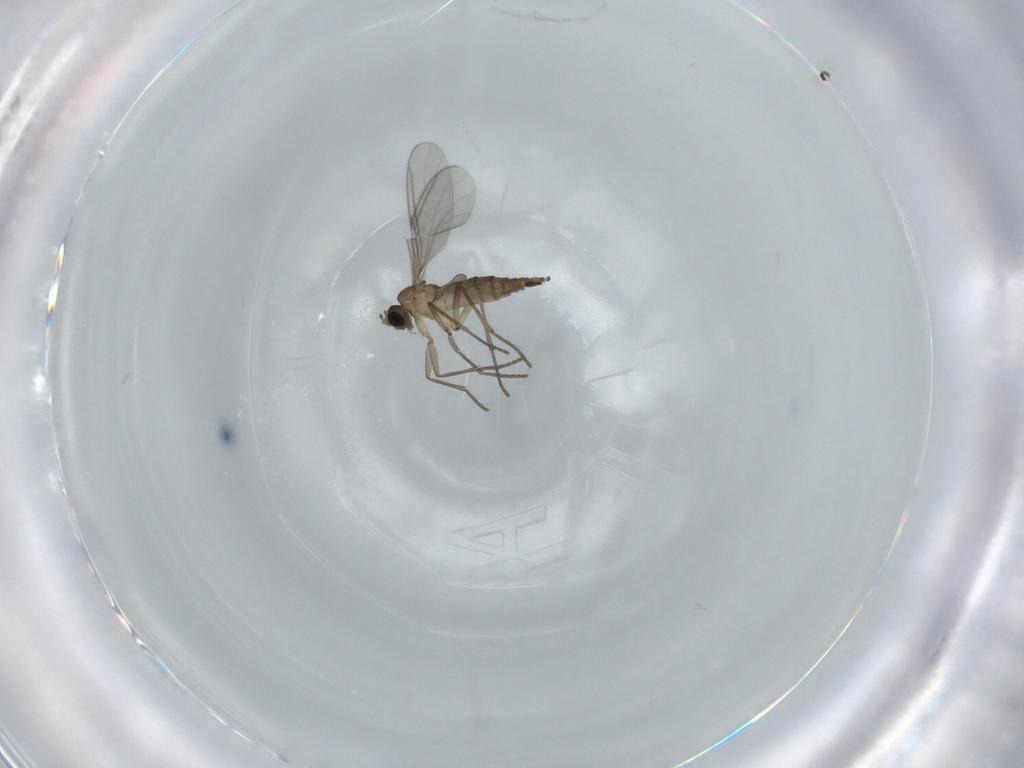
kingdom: Animalia
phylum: Arthropoda
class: Insecta
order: Diptera
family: Sciaridae
